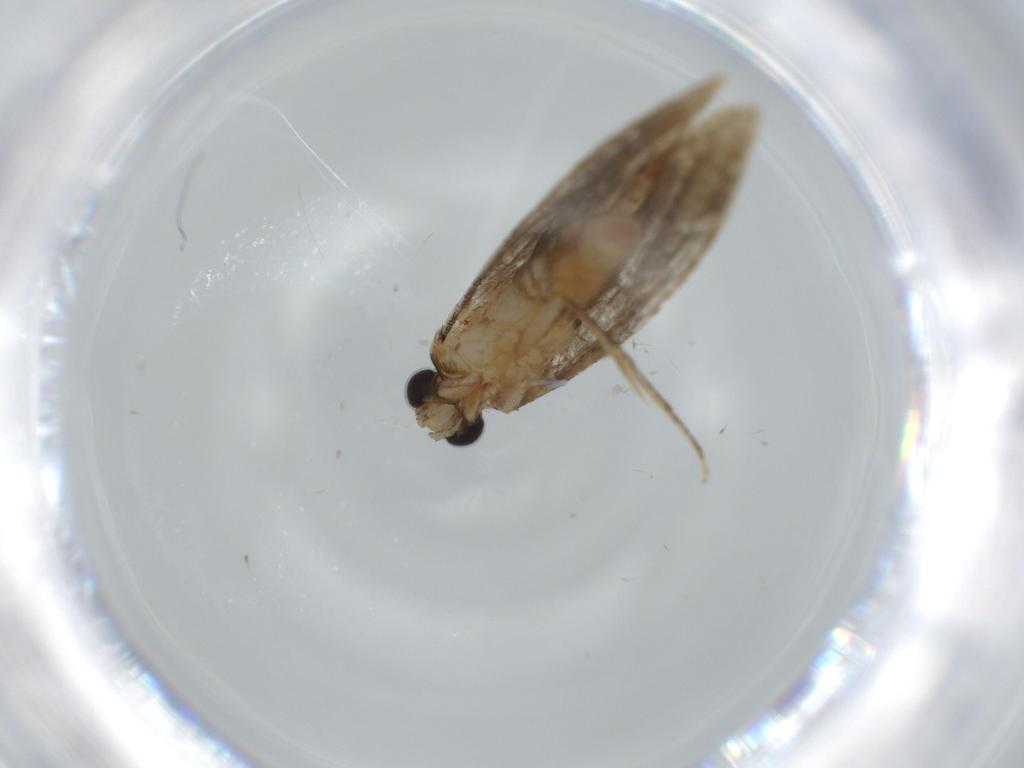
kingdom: Animalia
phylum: Arthropoda
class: Insecta
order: Lepidoptera
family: Tineidae
